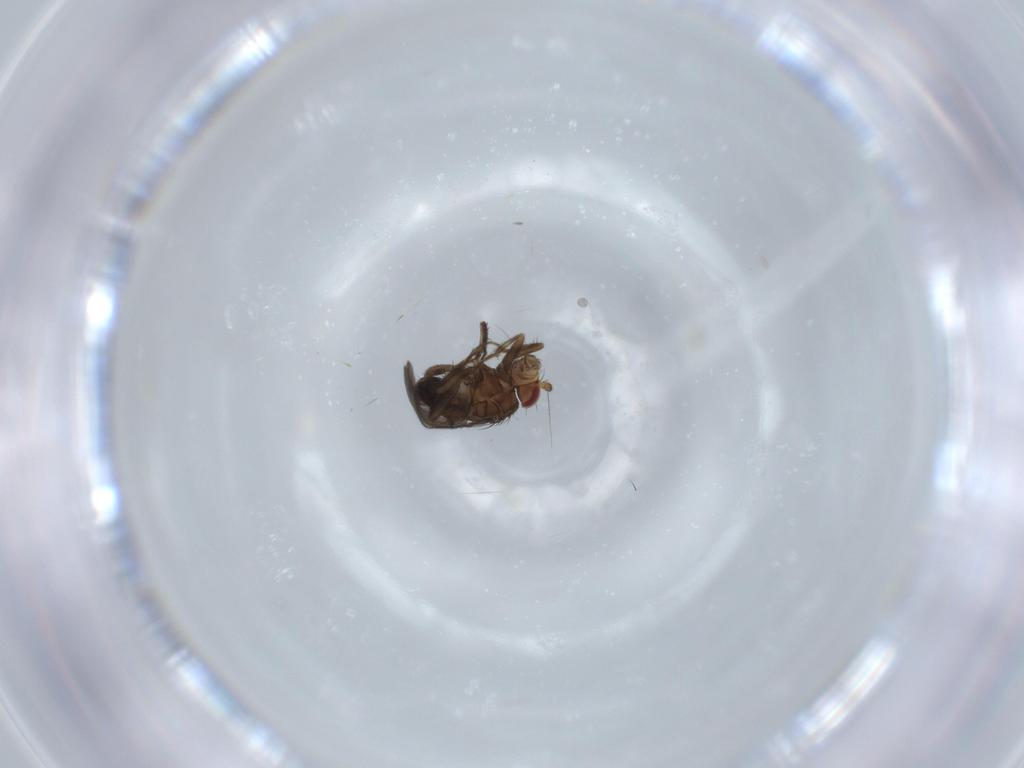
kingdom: Animalia
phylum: Arthropoda
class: Insecta
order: Diptera
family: Sphaeroceridae
